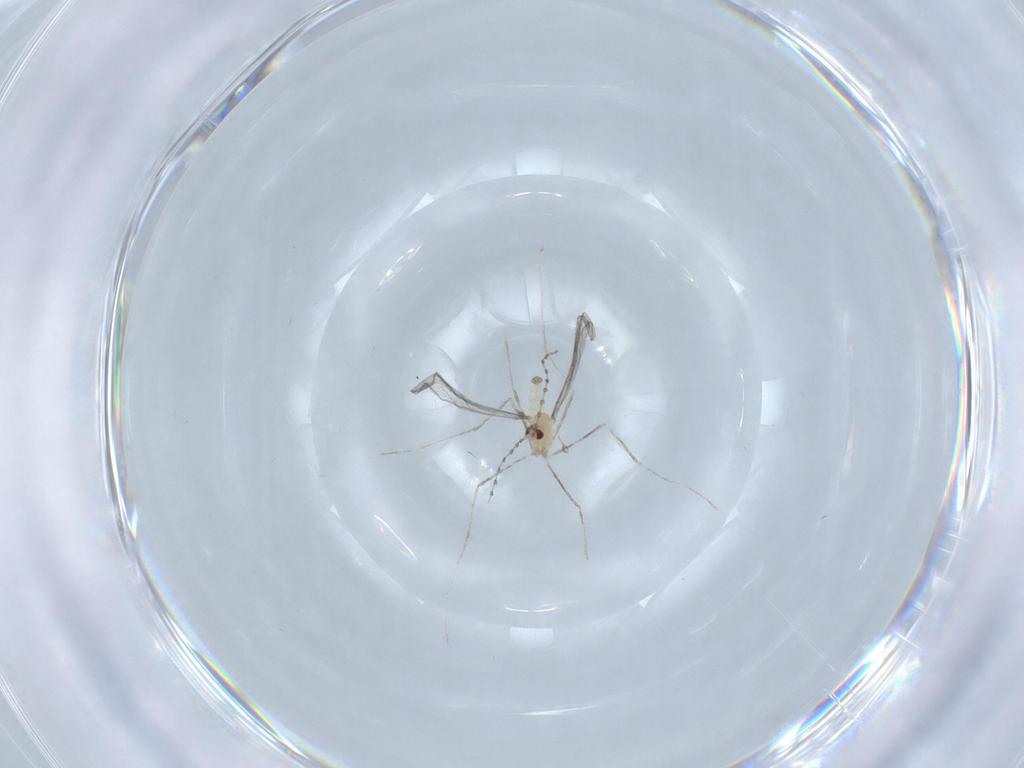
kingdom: Animalia
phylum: Arthropoda
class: Insecta
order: Diptera
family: Cecidomyiidae
